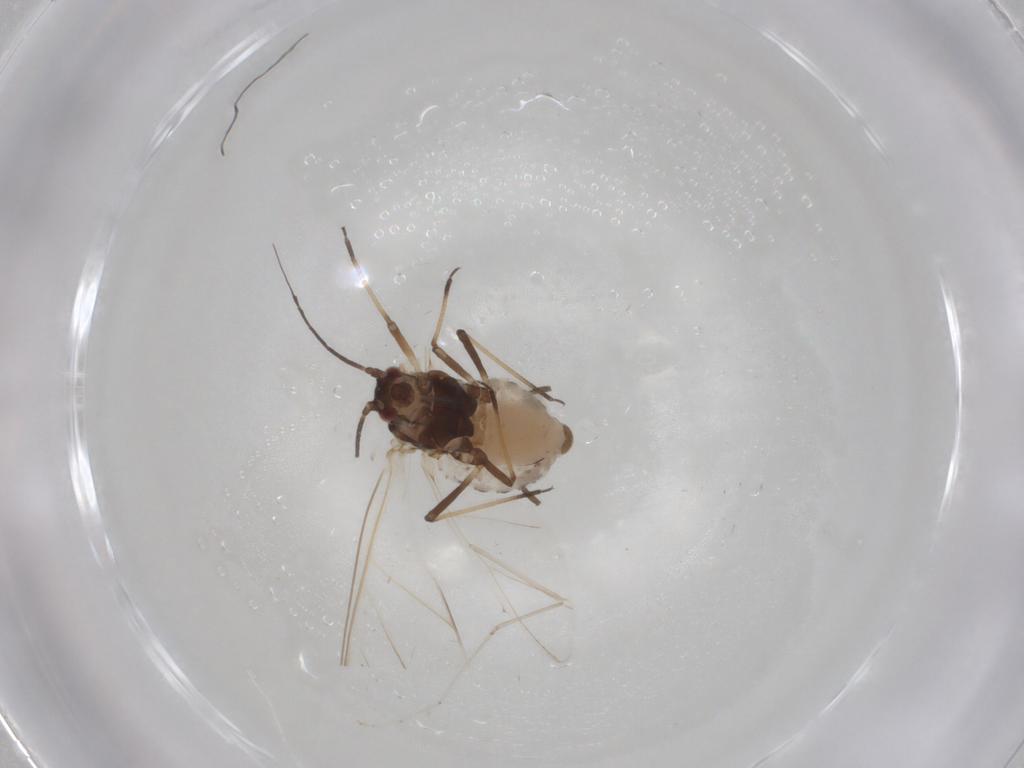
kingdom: Animalia
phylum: Arthropoda
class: Insecta
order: Hemiptera
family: Aphididae
